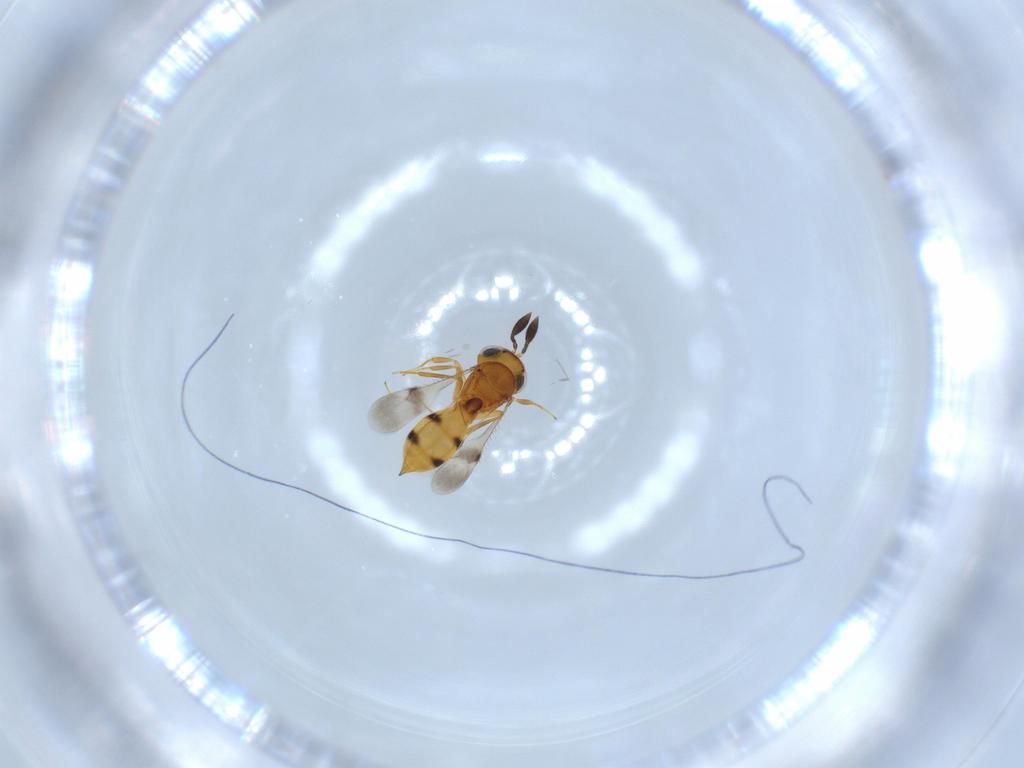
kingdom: Animalia
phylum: Arthropoda
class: Insecta
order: Hymenoptera
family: Scelionidae
